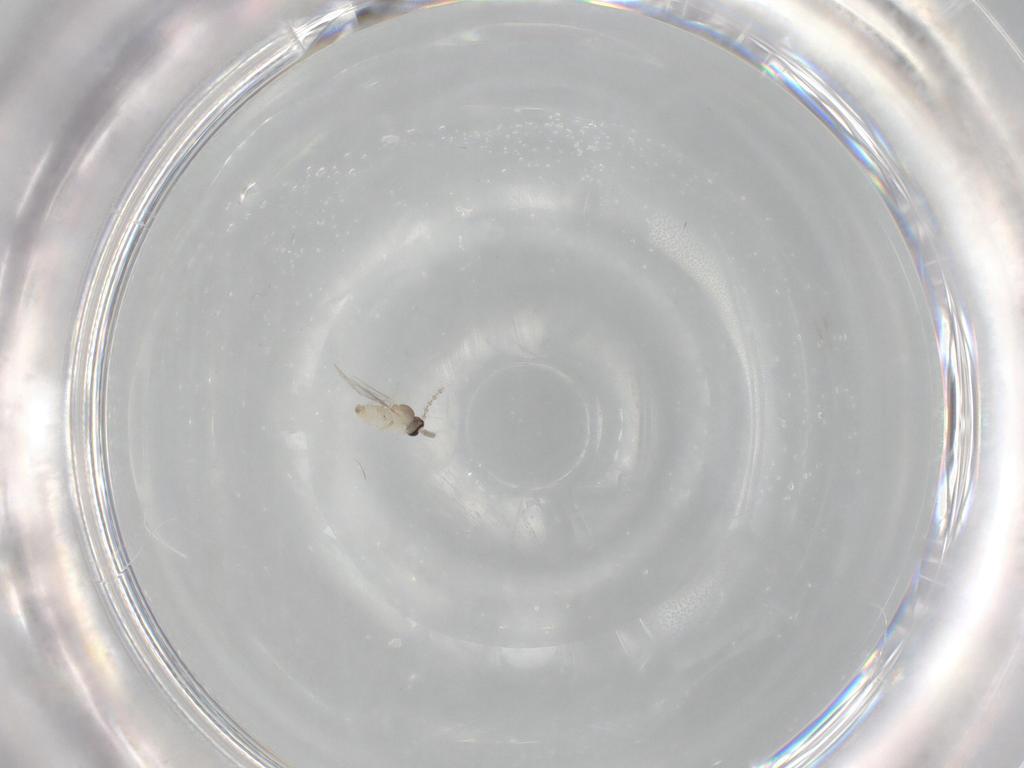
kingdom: Animalia
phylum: Arthropoda
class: Insecta
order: Diptera
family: Cecidomyiidae
